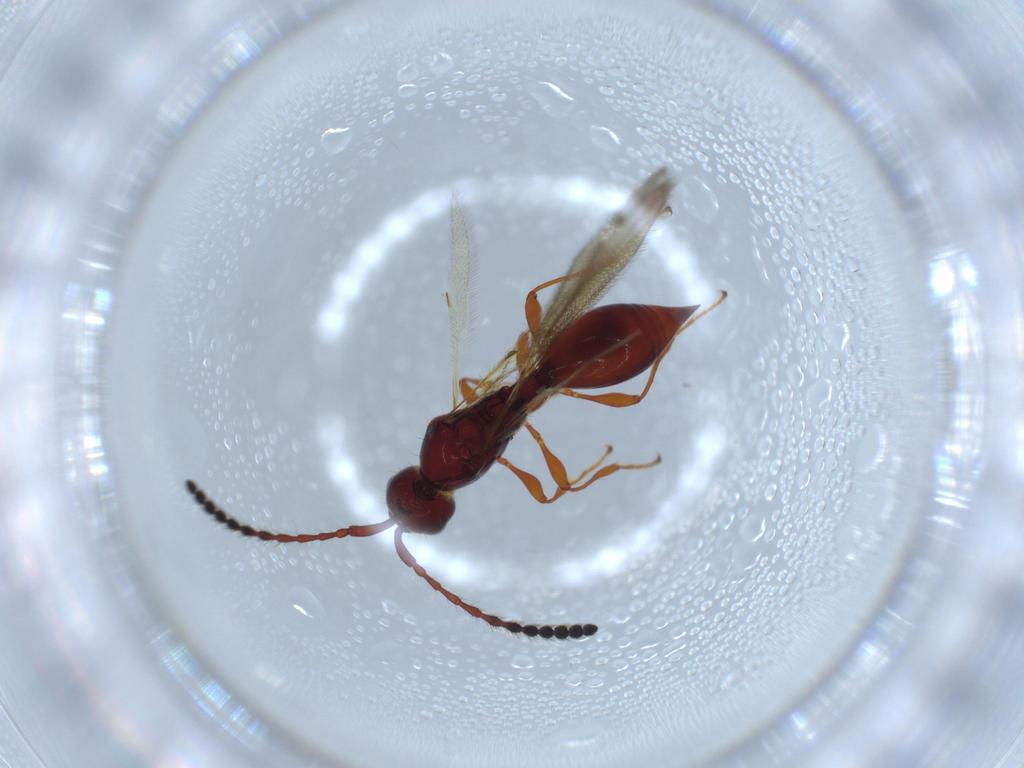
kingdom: Animalia
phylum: Arthropoda
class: Insecta
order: Hymenoptera
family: Diapriidae
